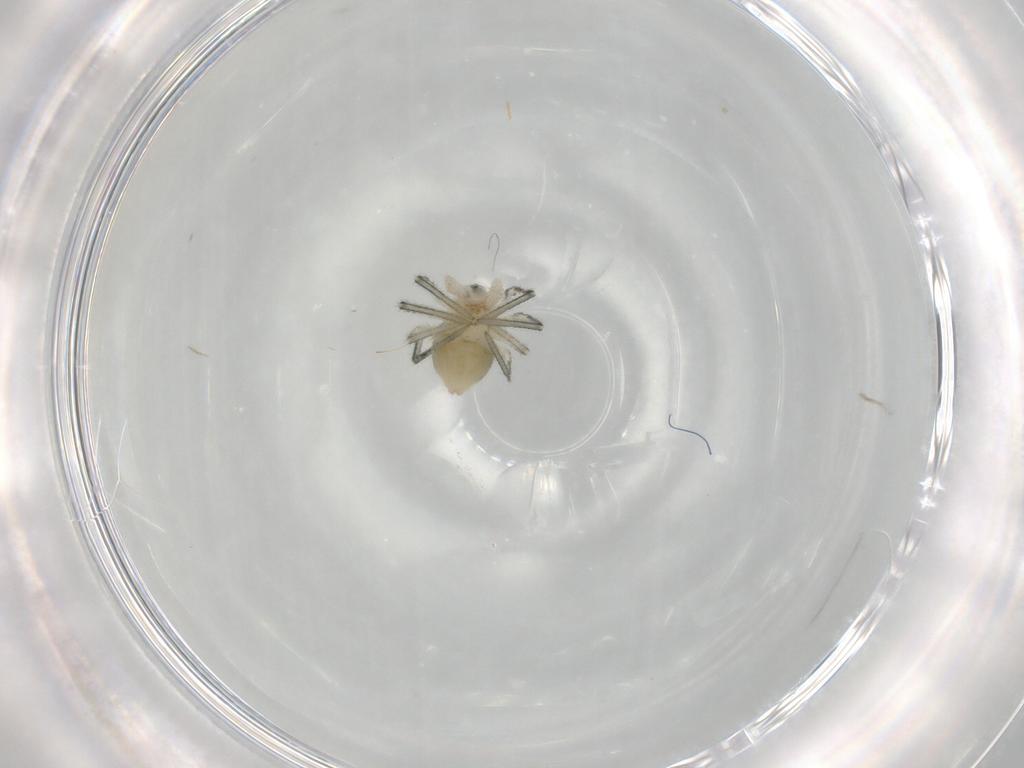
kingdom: Animalia
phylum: Arthropoda
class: Arachnida
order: Araneae
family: Linyphiidae
